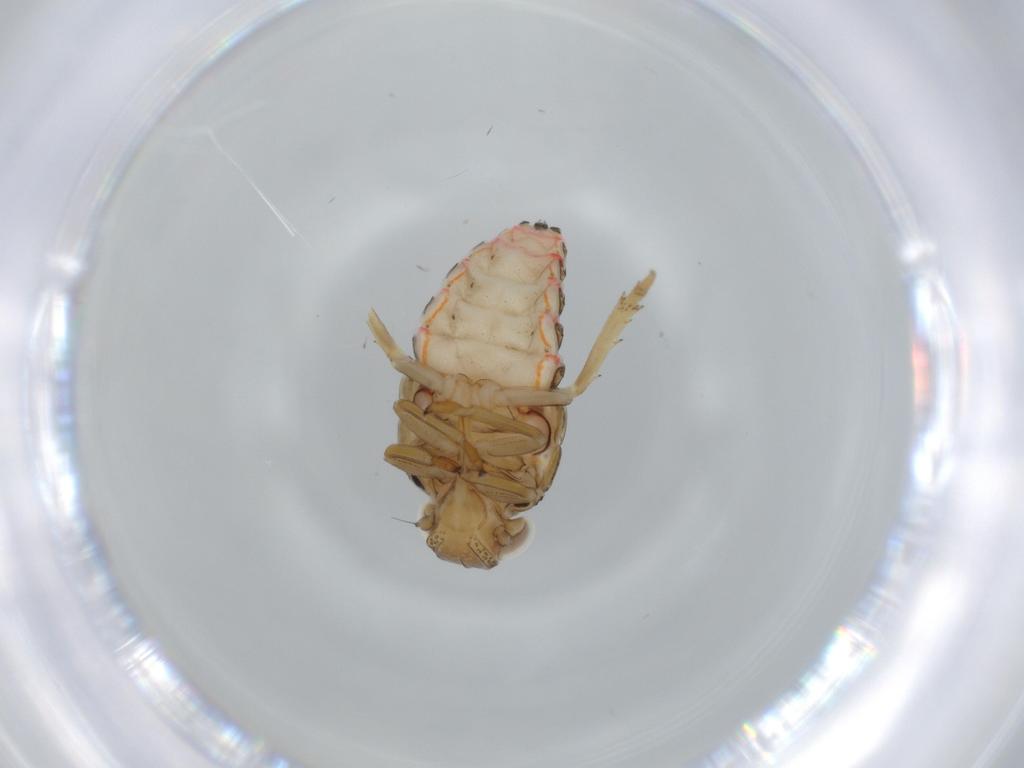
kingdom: Animalia
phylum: Arthropoda
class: Insecta
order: Hemiptera
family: Issidae
